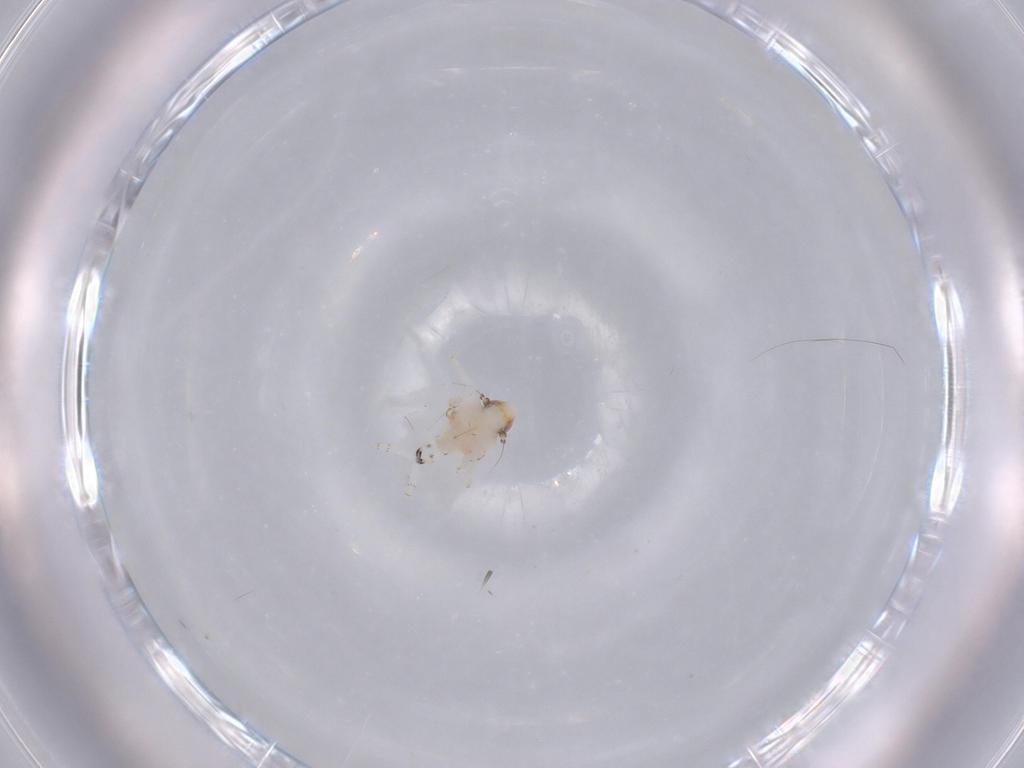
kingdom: Animalia
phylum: Arthropoda
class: Insecta
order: Hemiptera
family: Nogodinidae
